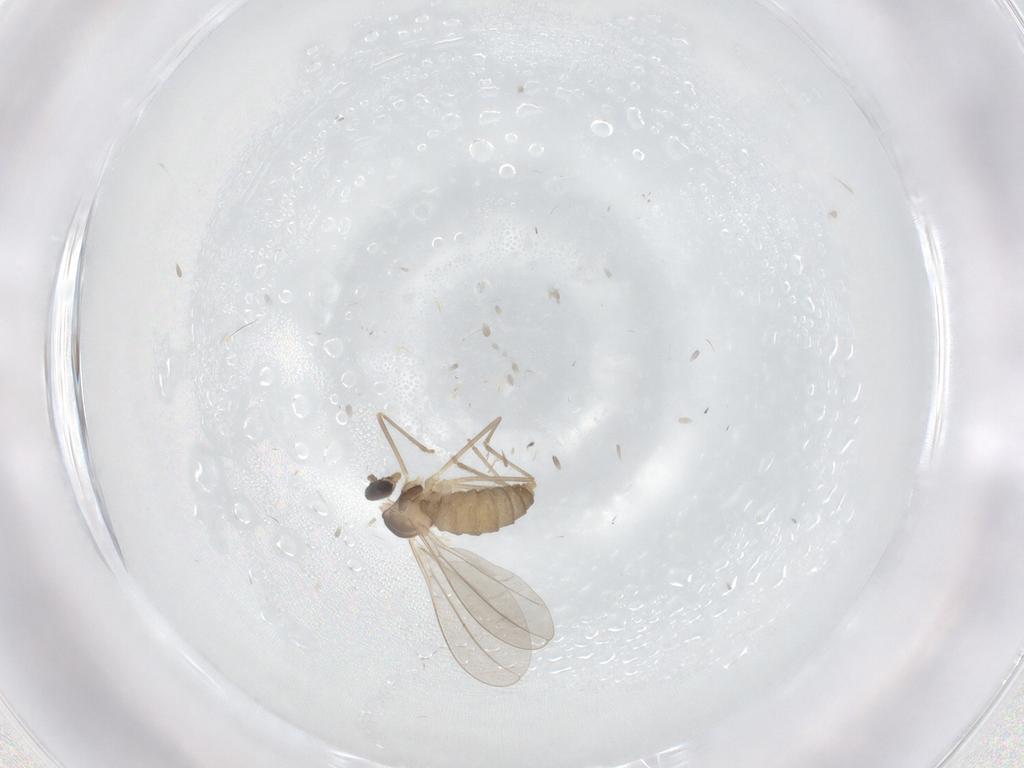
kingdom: Animalia
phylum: Arthropoda
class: Insecta
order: Diptera
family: Cecidomyiidae
